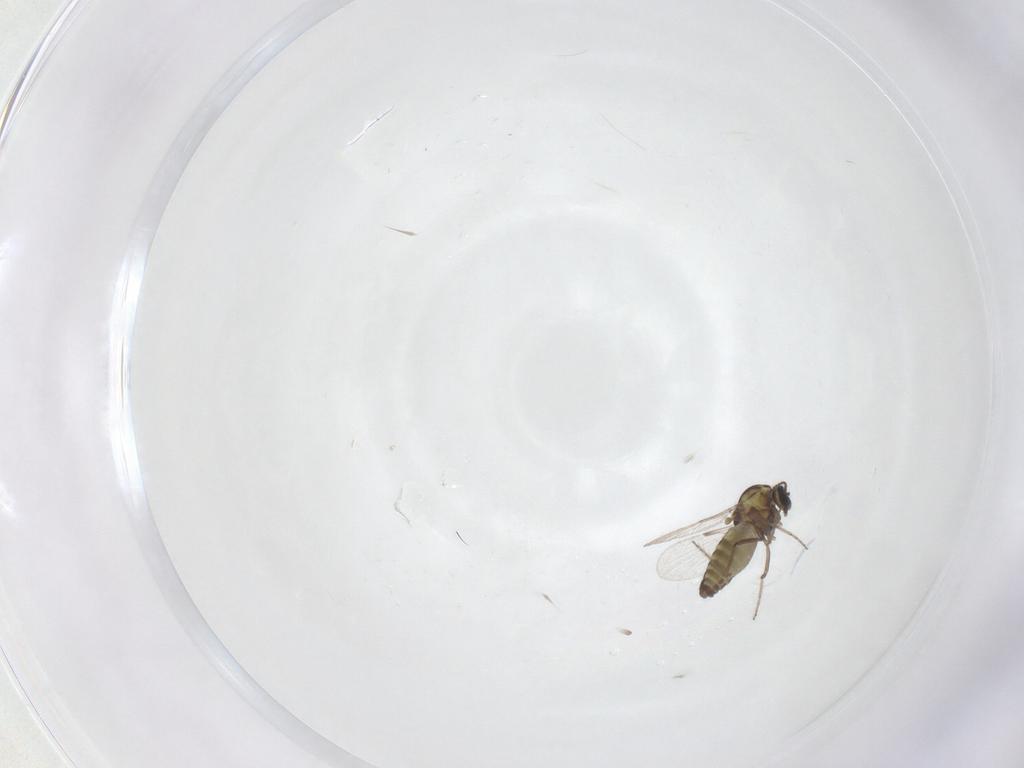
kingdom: Animalia
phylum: Arthropoda
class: Insecta
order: Diptera
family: Ceratopogonidae
